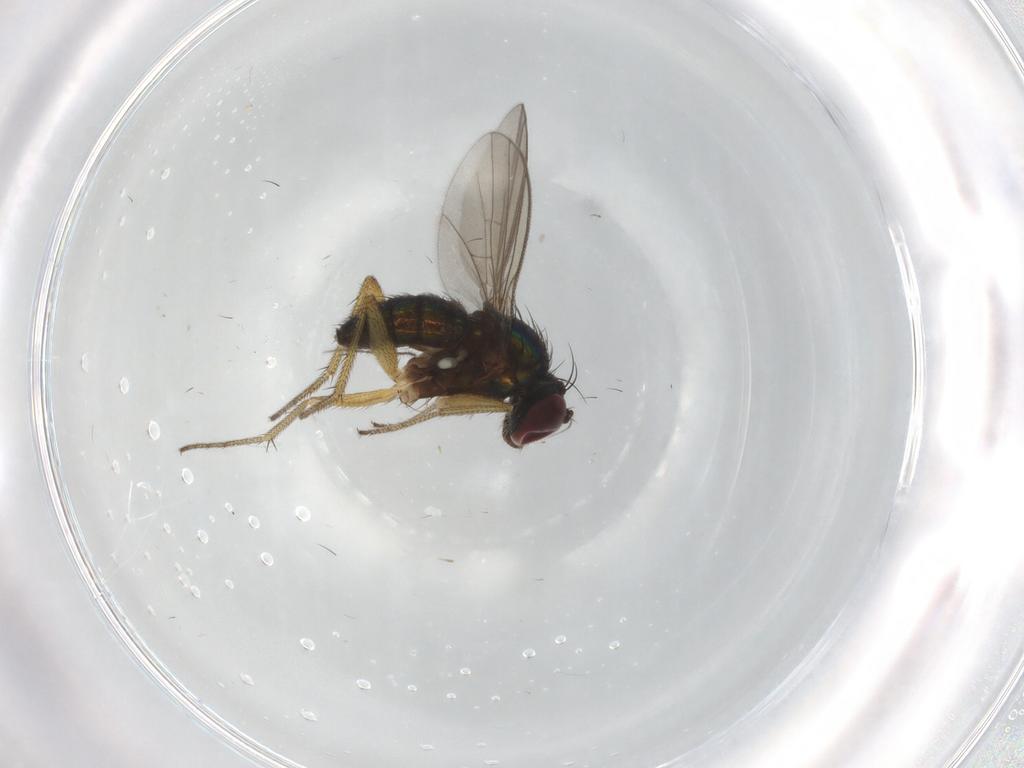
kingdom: Animalia
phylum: Arthropoda
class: Insecta
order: Diptera
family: Dolichopodidae
